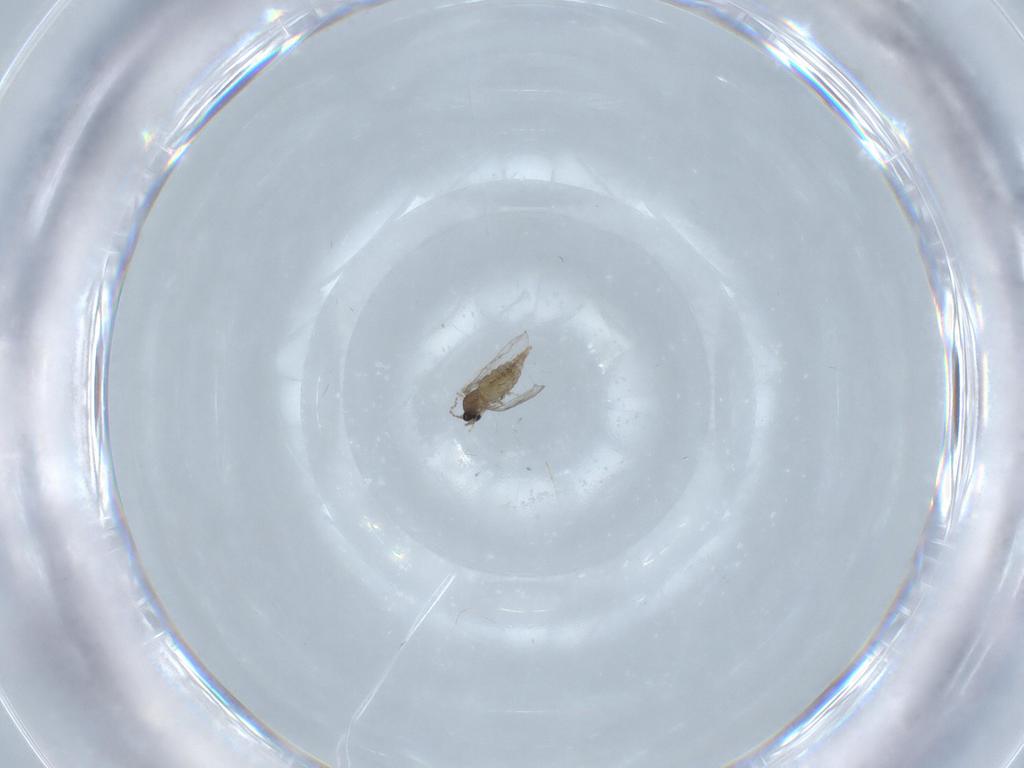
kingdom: Animalia
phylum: Arthropoda
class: Insecta
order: Diptera
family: Cecidomyiidae
